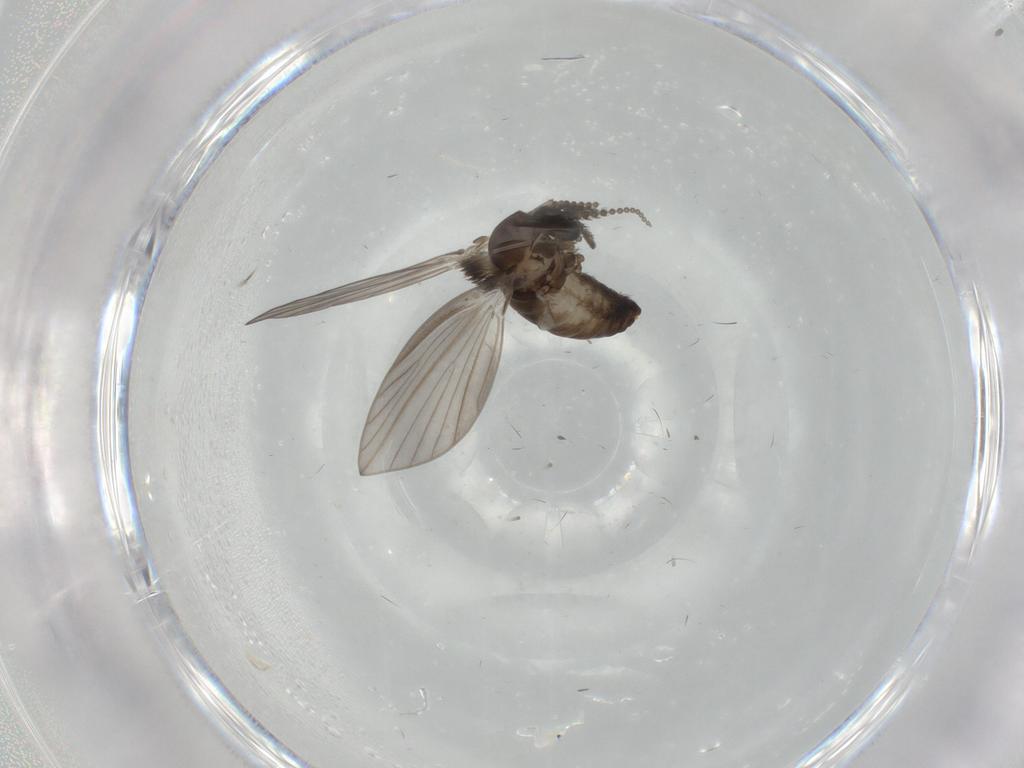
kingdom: Animalia
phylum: Arthropoda
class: Insecta
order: Diptera
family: Psychodidae
